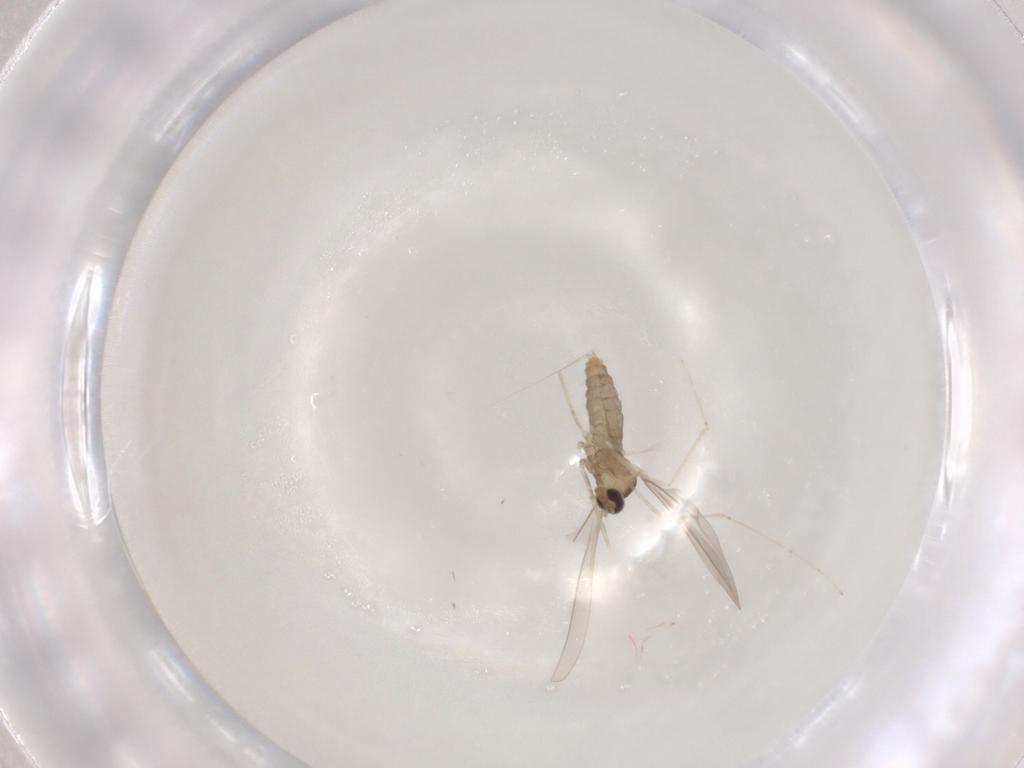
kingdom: Animalia
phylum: Arthropoda
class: Insecta
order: Diptera
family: Cecidomyiidae
